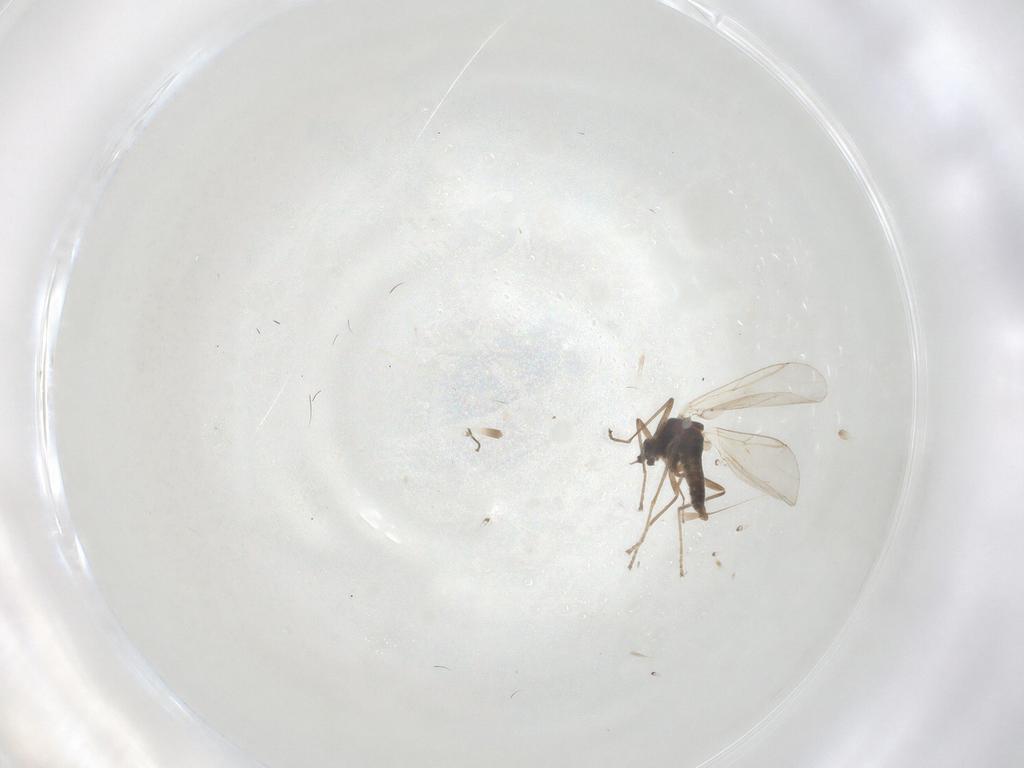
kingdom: Animalia
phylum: Arthropoda
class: Insecta
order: Diptera
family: Cecidomyiidae
